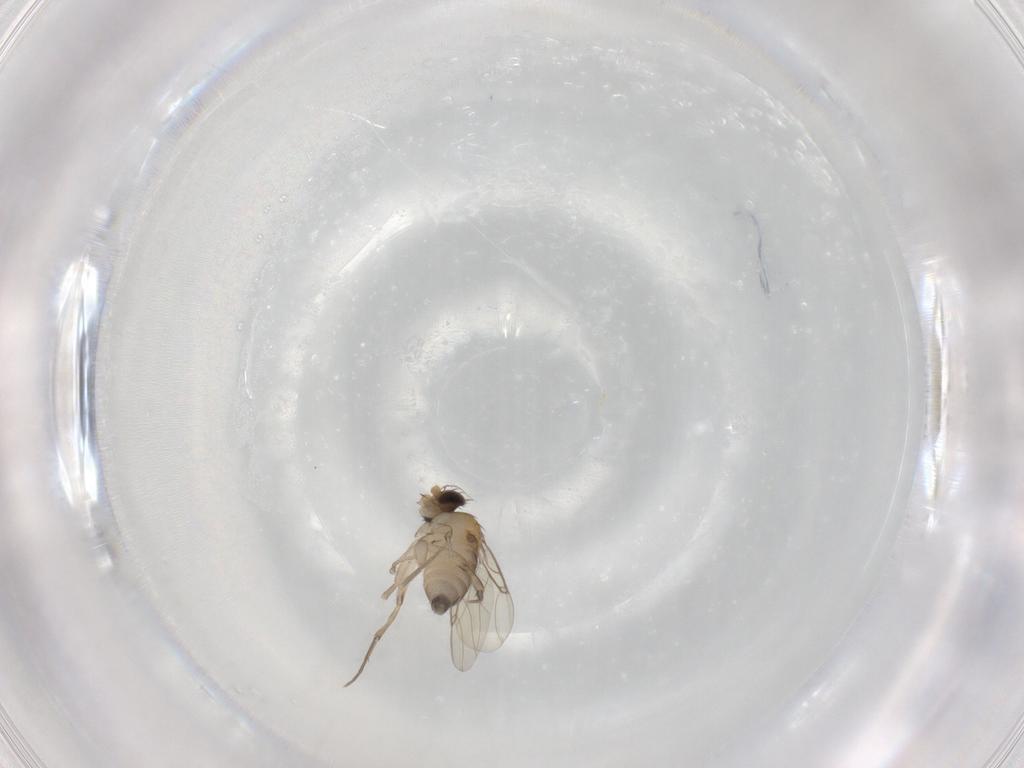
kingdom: Animalia
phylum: Arthropoda
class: Insecta
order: Diptera
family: Phoridae
